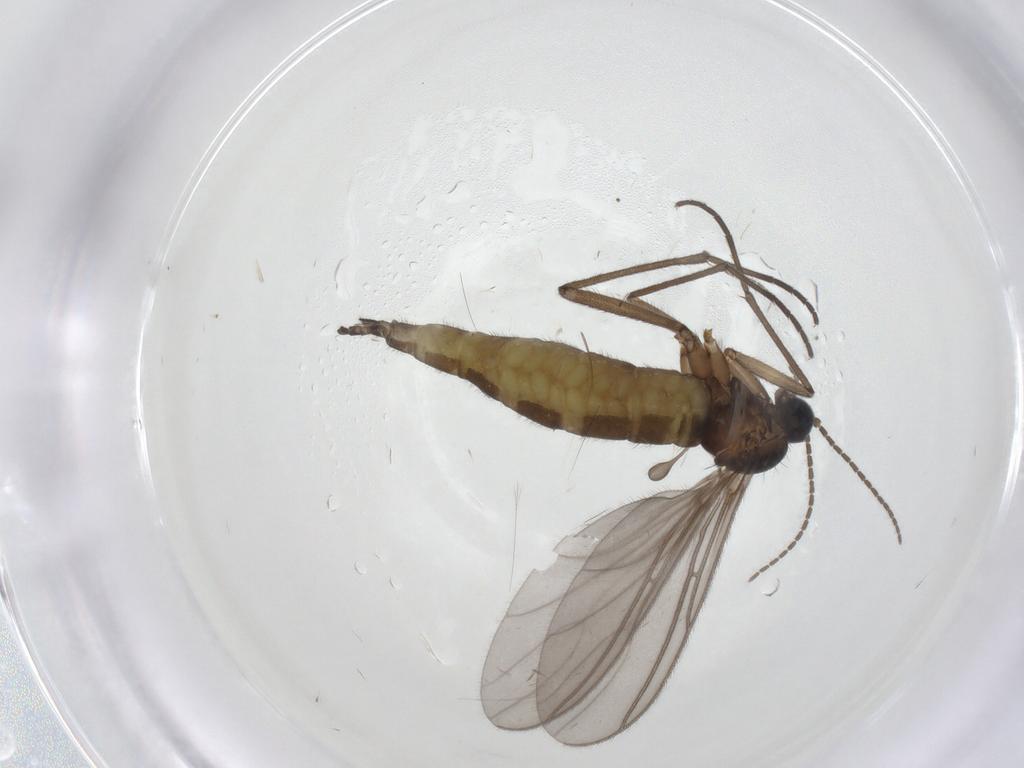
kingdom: Animalia
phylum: Arthropoda
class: Insecta
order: Diptera
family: Sciaridae
